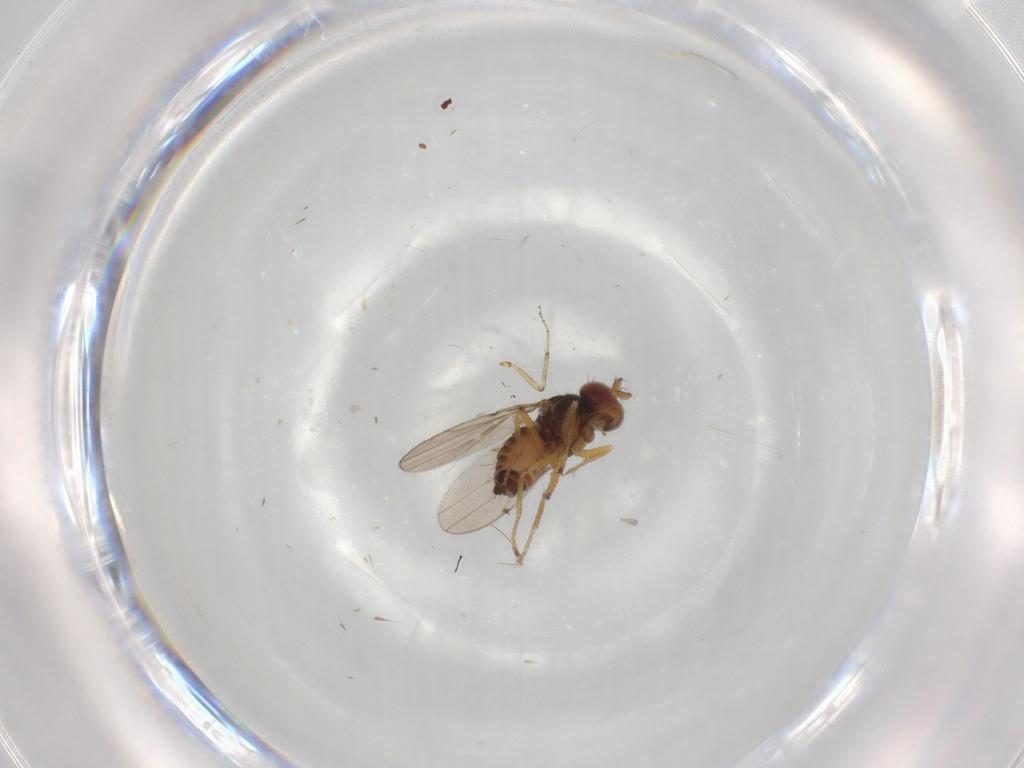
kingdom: Animalia
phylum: Arthropoda
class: Insecta
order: Diptera
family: Ephydridae
